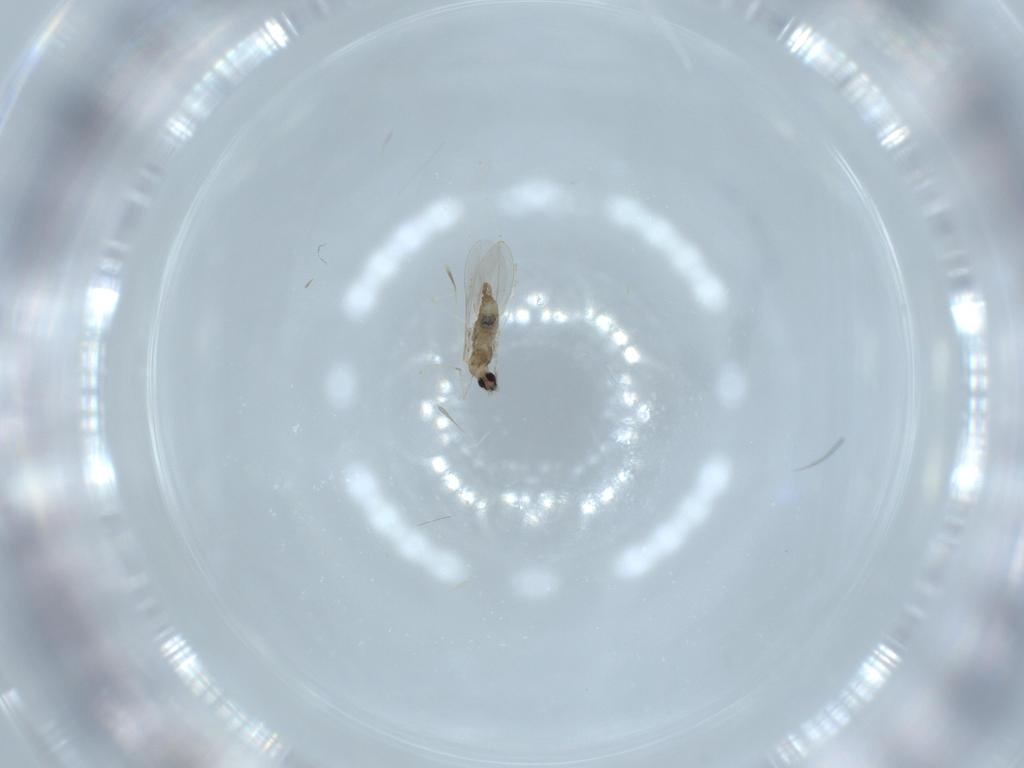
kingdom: Animalia
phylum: Arthropoda
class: Insecta
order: Diptera
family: Cecidomyiidae
